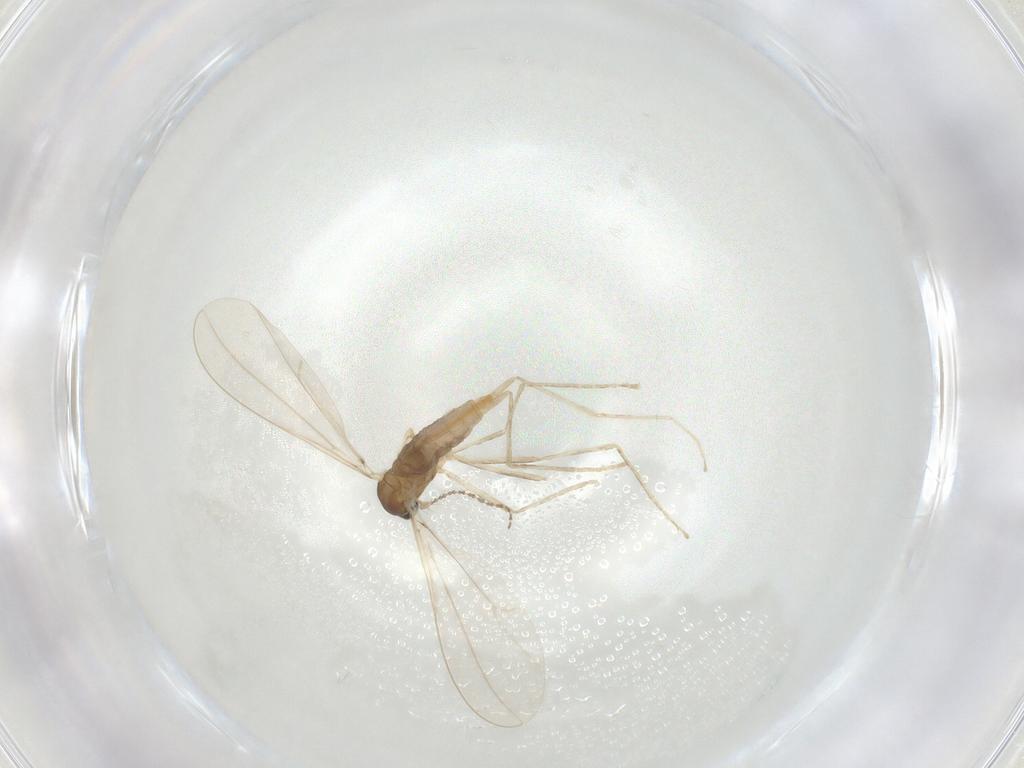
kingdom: Animalia
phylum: Arthropoda
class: Insecta
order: Diptera
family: Cecidomyiidae
